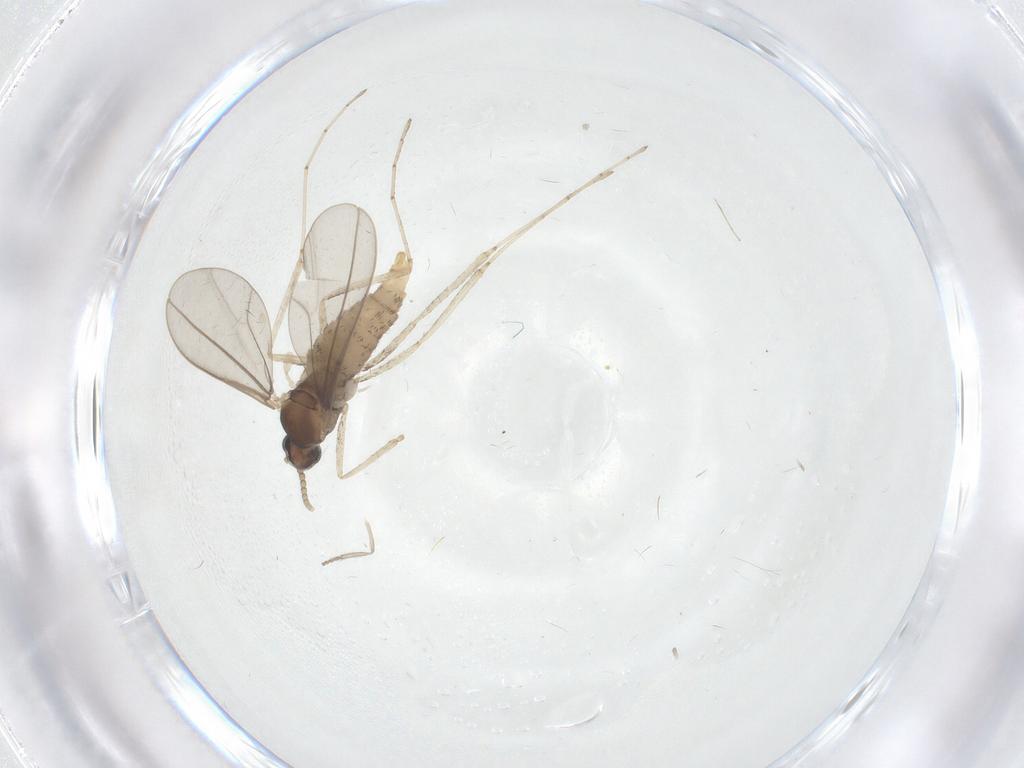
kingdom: Animalia
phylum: Arthropoda
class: Insecta
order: Diptera
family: Cecidomyiidae
